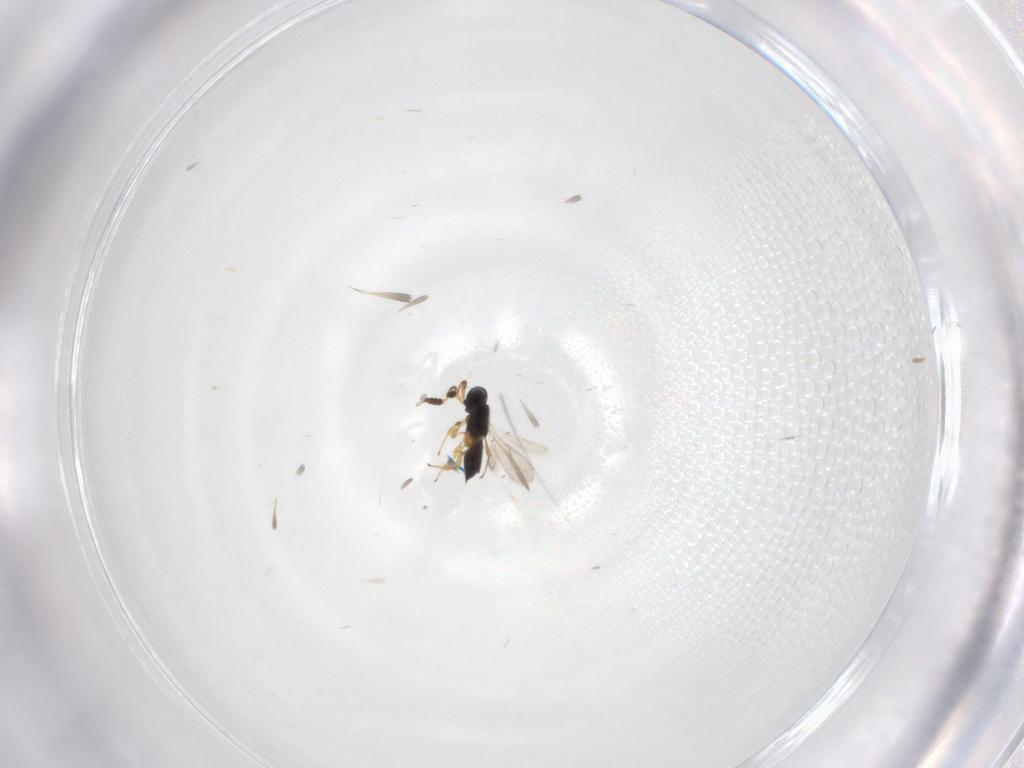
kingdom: Animalia
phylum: Arthropoda
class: Insecta
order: Hymenoptera
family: Scelionidae
